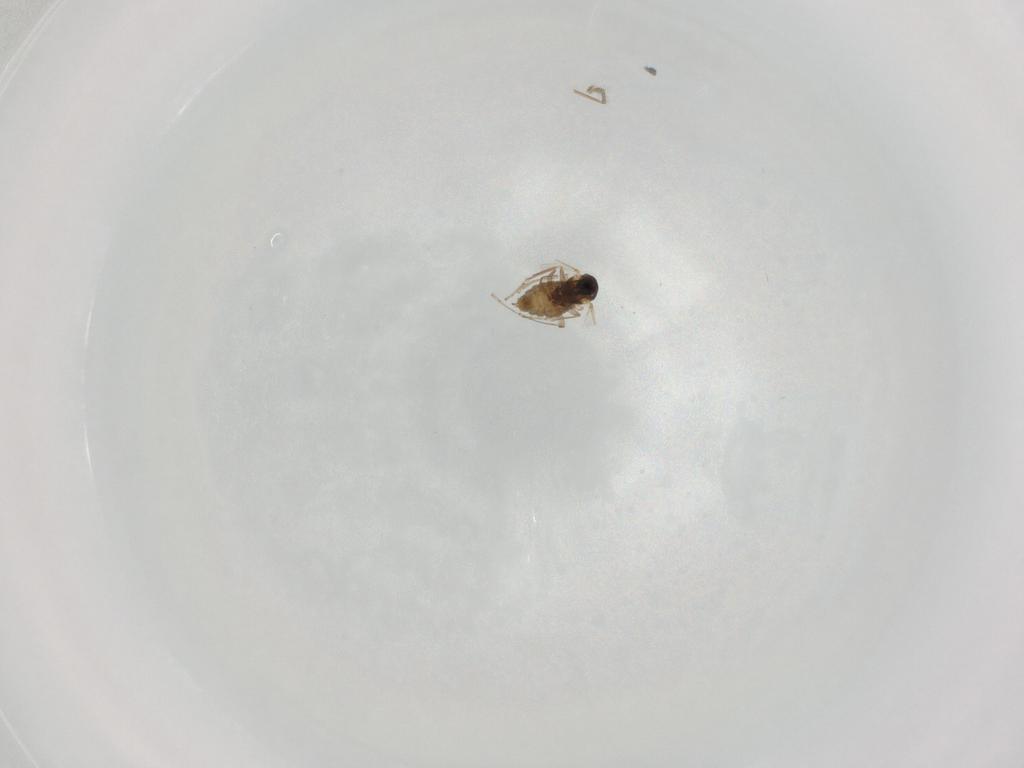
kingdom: Animalia
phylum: Arthropoda
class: Insecta
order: Diptera
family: Cecidomyiidae
